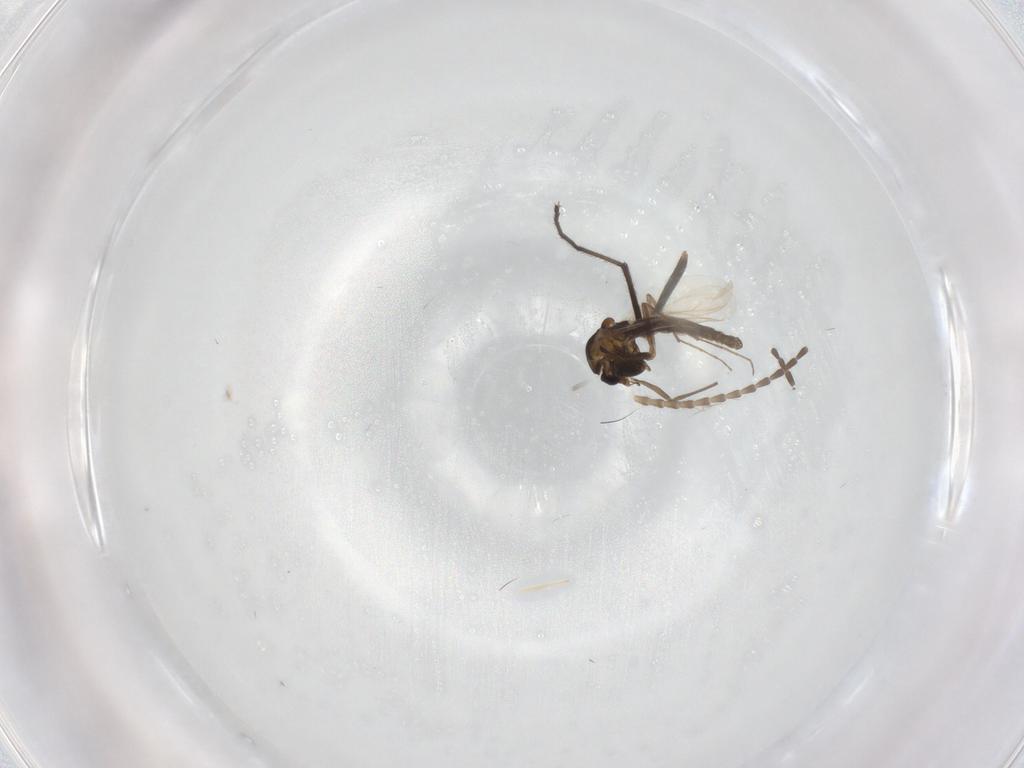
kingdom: Animalia
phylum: Arthropoda
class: Insecta
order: Diptera
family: Chironomidae
